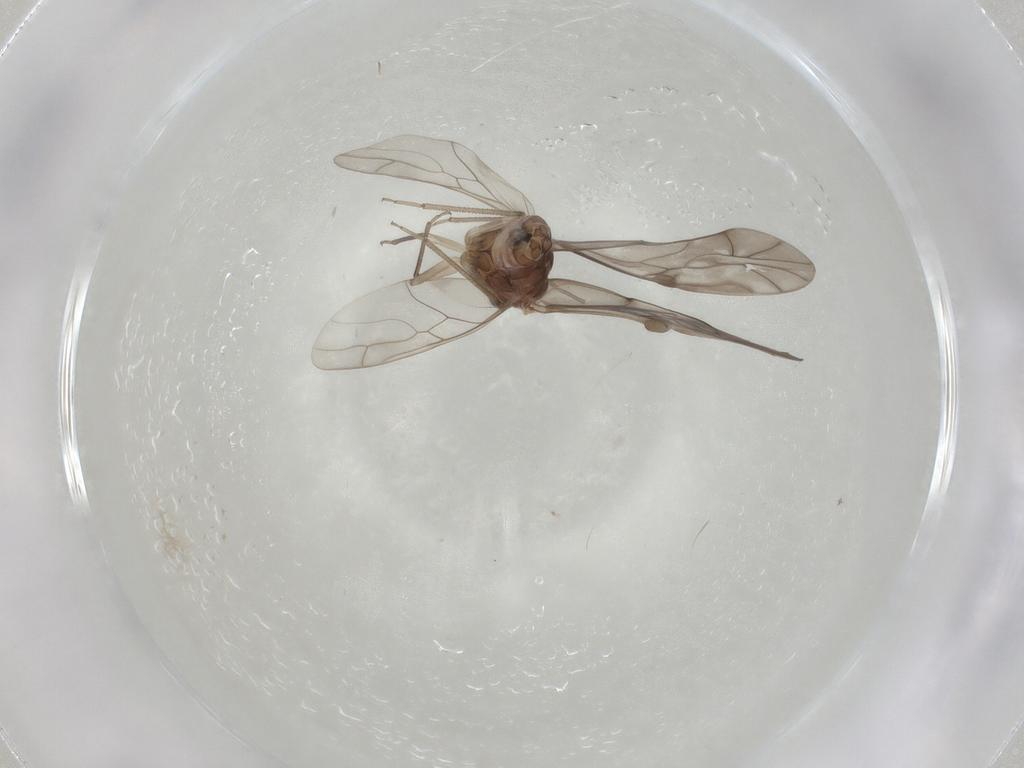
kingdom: Animalia
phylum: Arthropoda
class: Insecta
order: Psocodea
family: Peripsocidae
